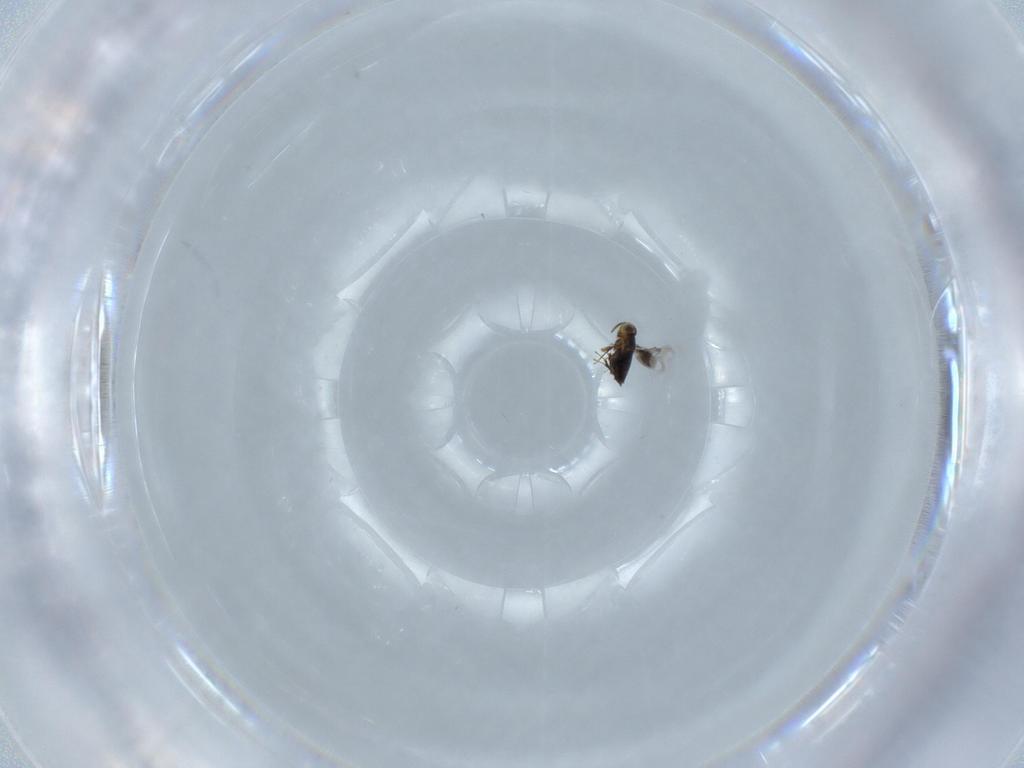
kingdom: Animalia
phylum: Arthropoda
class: Insecta
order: Hymenoptera
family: Signiphoridae
